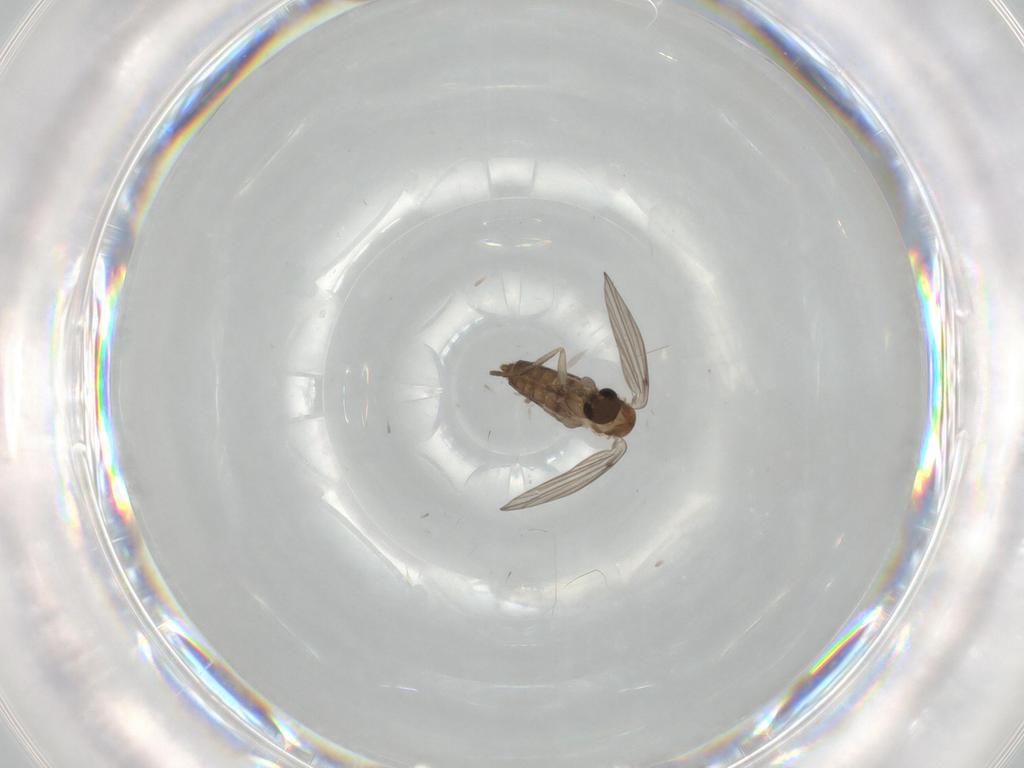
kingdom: Animalia
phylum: Arthropoda
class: Insecta
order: Diptera
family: Psychodidae
